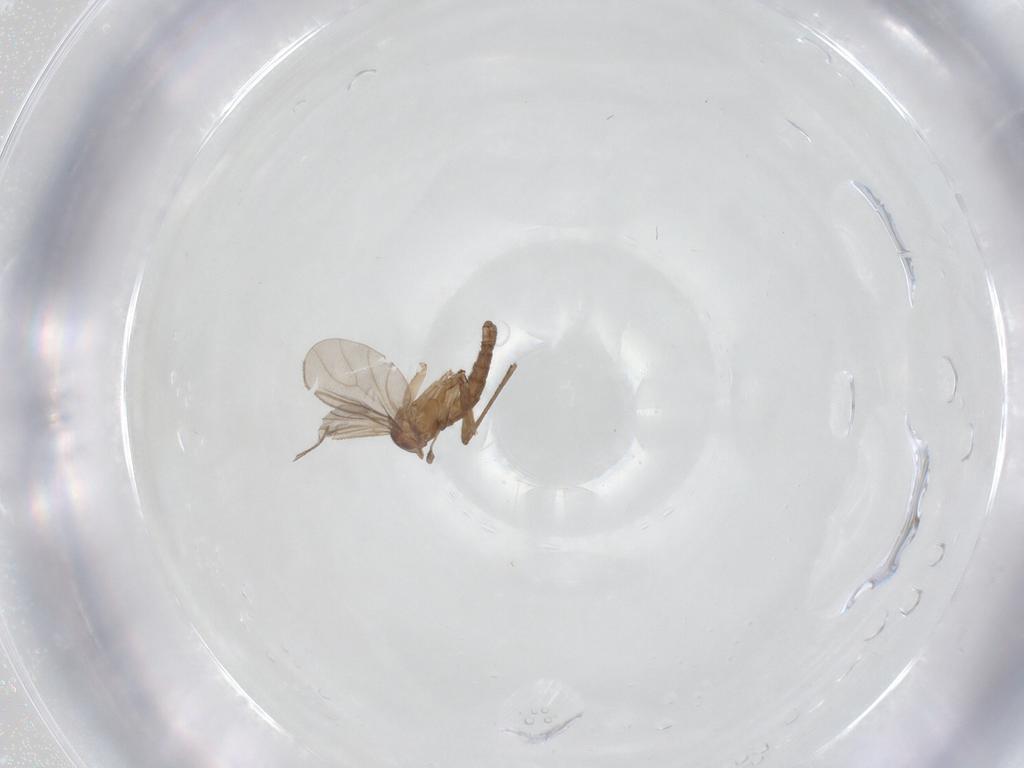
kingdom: Animalia
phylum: Arthropoda
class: Insecta
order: Diptera
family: Sciaridae
